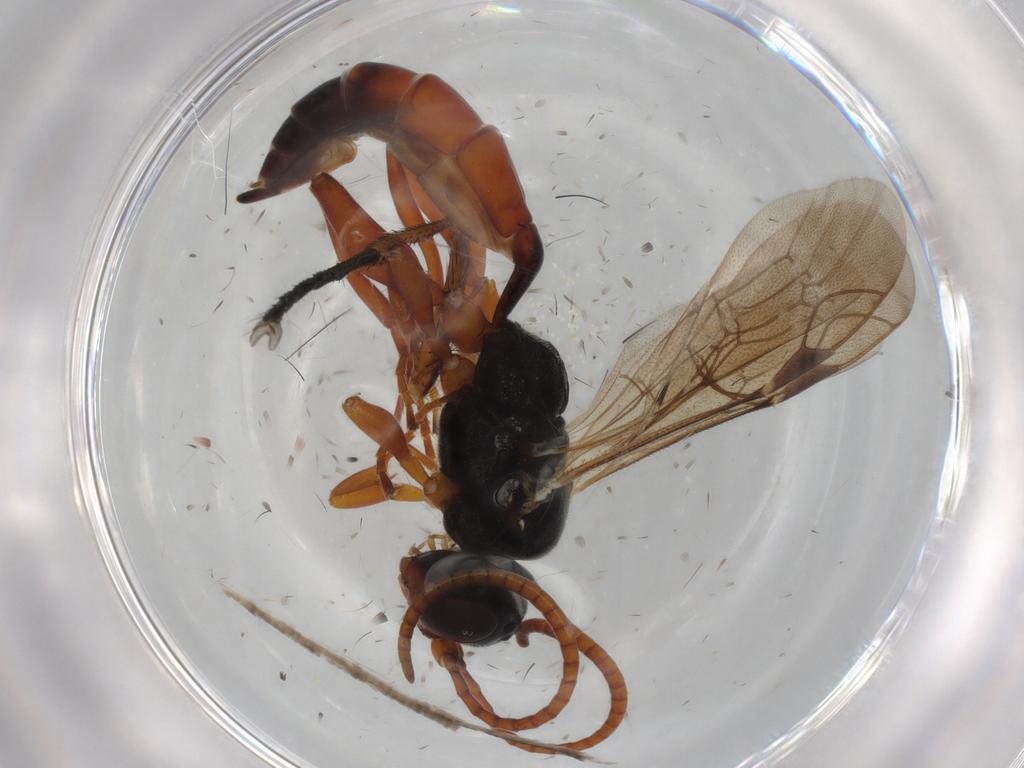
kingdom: Animalia
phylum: Arthropoda
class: Insecta
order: Hymenoptera
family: Ichneumonidae
